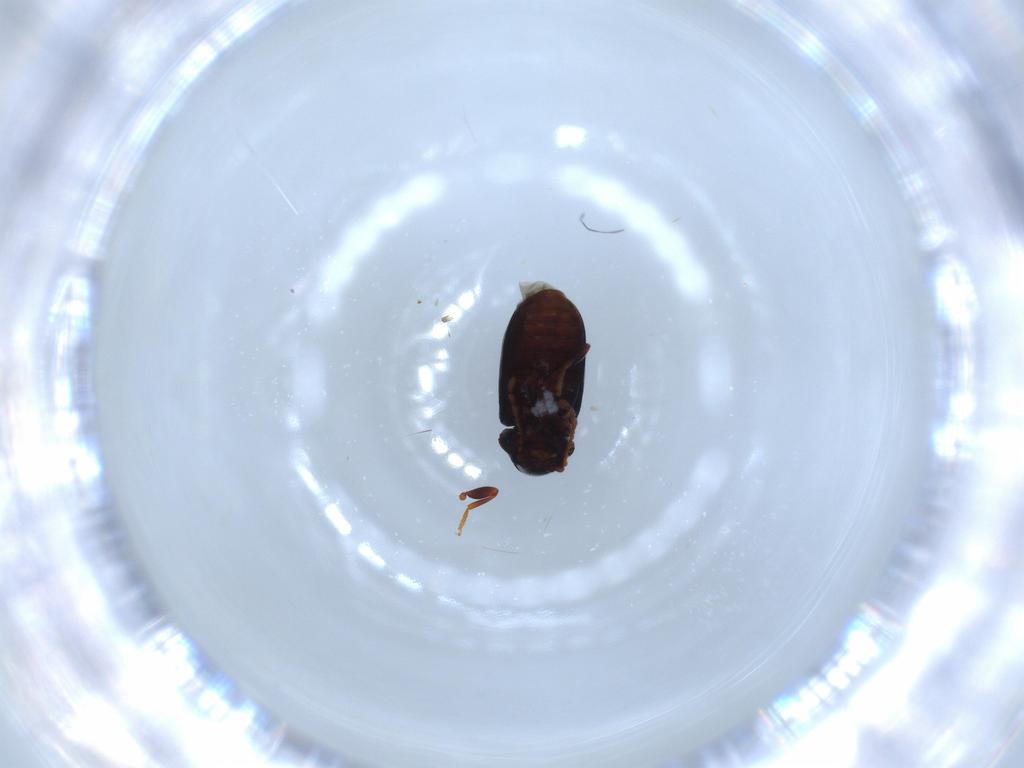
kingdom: Animalia
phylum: Arthropoda
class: Insecta
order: Coleoptera
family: Ptinidae
